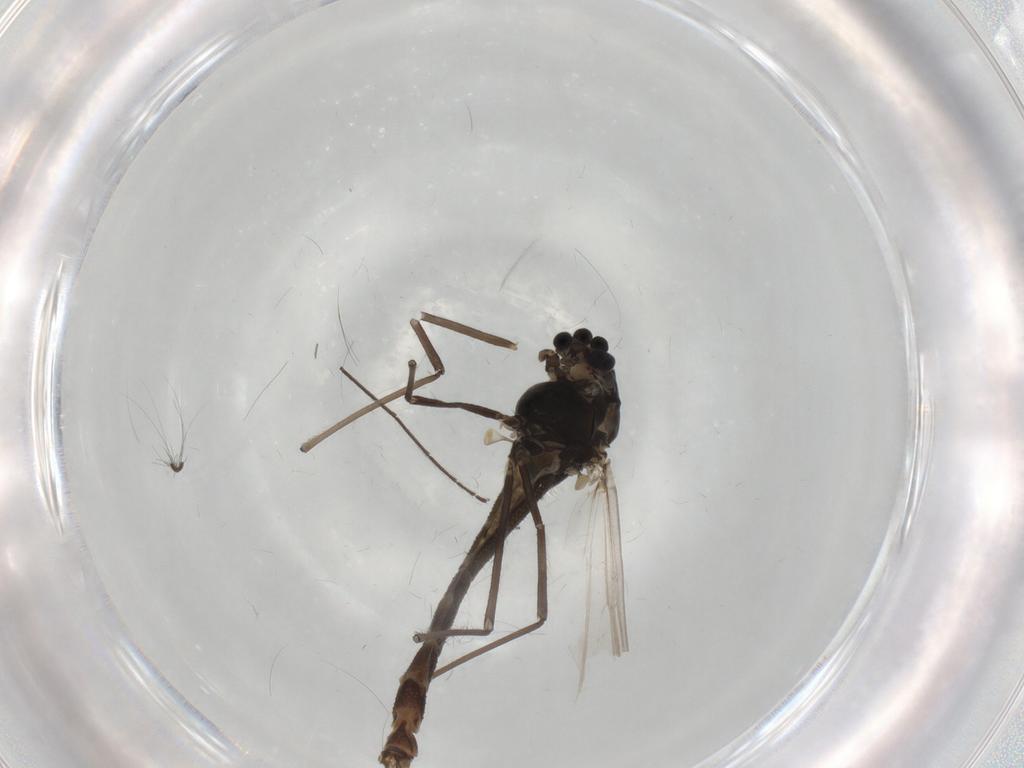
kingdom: Animalia
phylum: Arthropoda
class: Insecta
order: Diptera
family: Chironomidae
